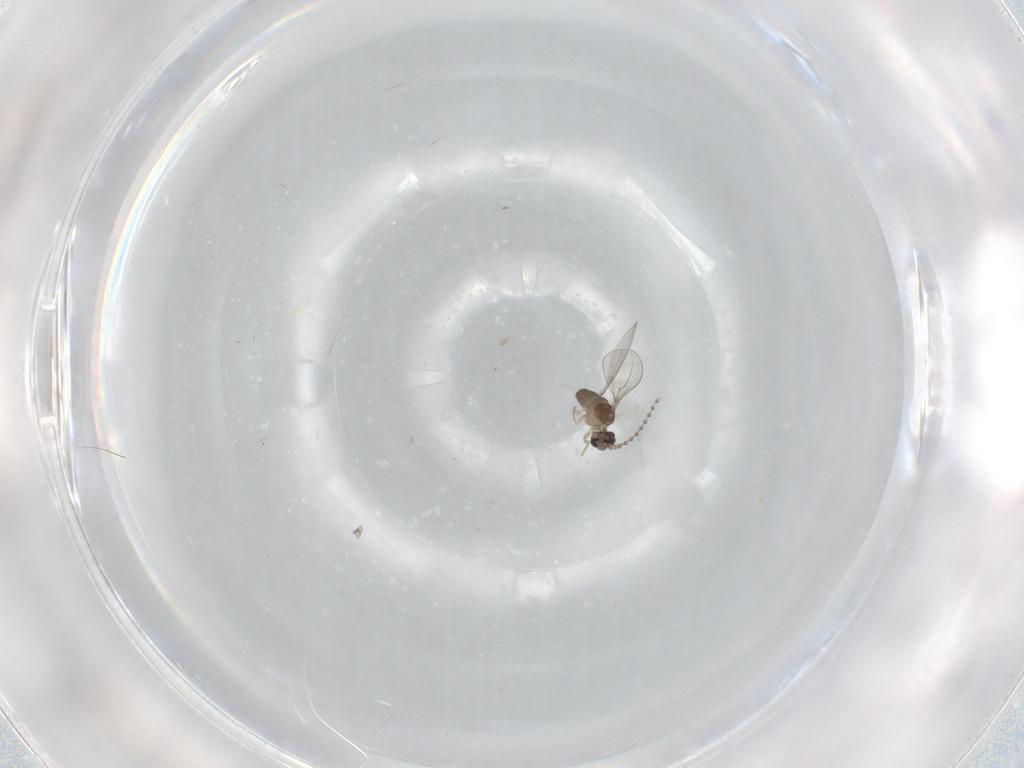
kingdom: Animalia
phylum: Arthropoda
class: Insecta
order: Diptera
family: Cecidomyiidae
